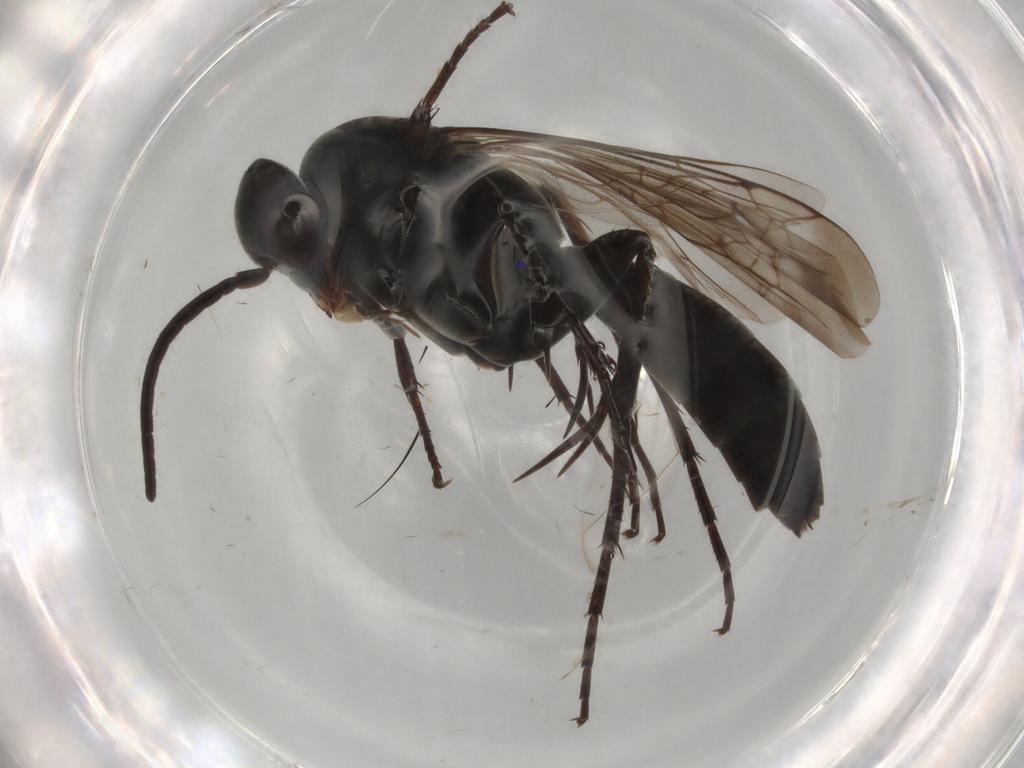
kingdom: Animalia
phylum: Arthropoda
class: Insecta
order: Hymenoptera
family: Pompilidae
